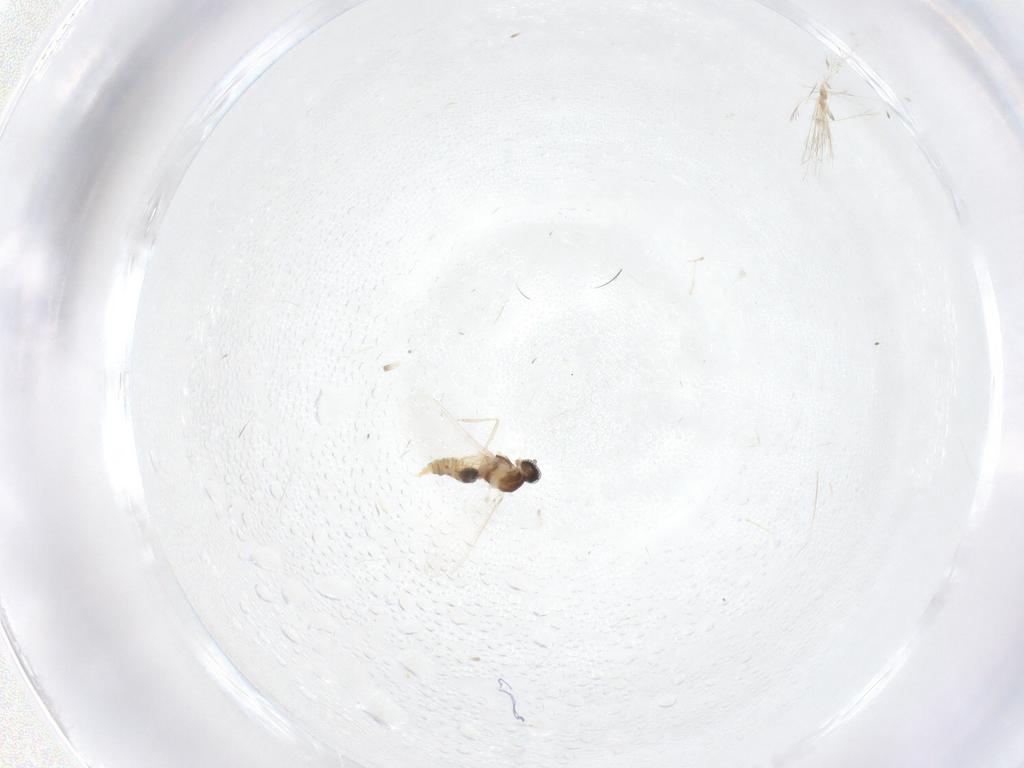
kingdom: Animalia
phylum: Arthropoda
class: Insecta
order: Diptera
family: Cecidomyiidae
